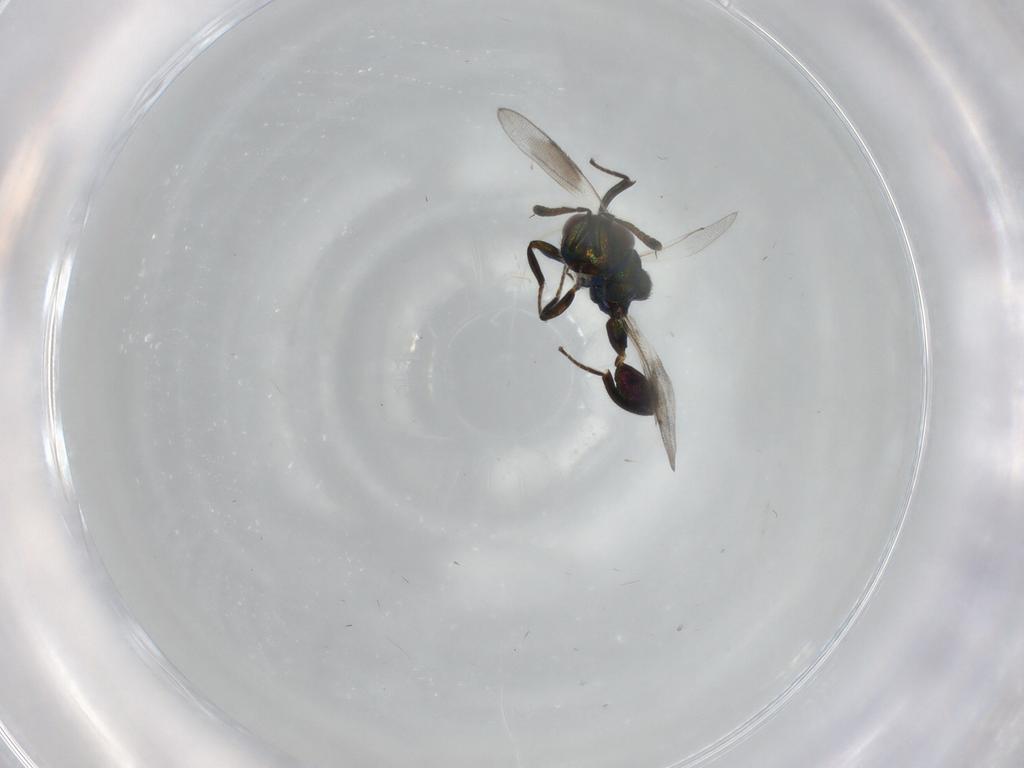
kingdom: Animalia
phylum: Arthropoda
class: Insecta
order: Hymenoptera
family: Pteromalidae
